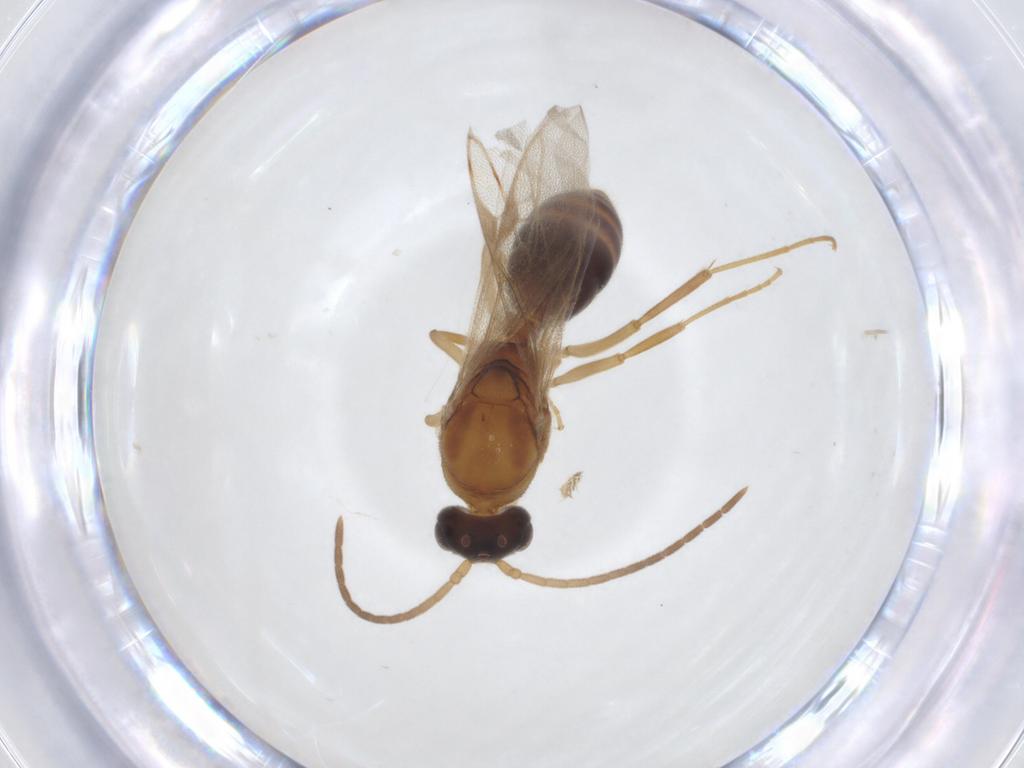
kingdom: Animalia
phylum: Arthropoda
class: Insecta
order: Hymenoptera
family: Formicidae
